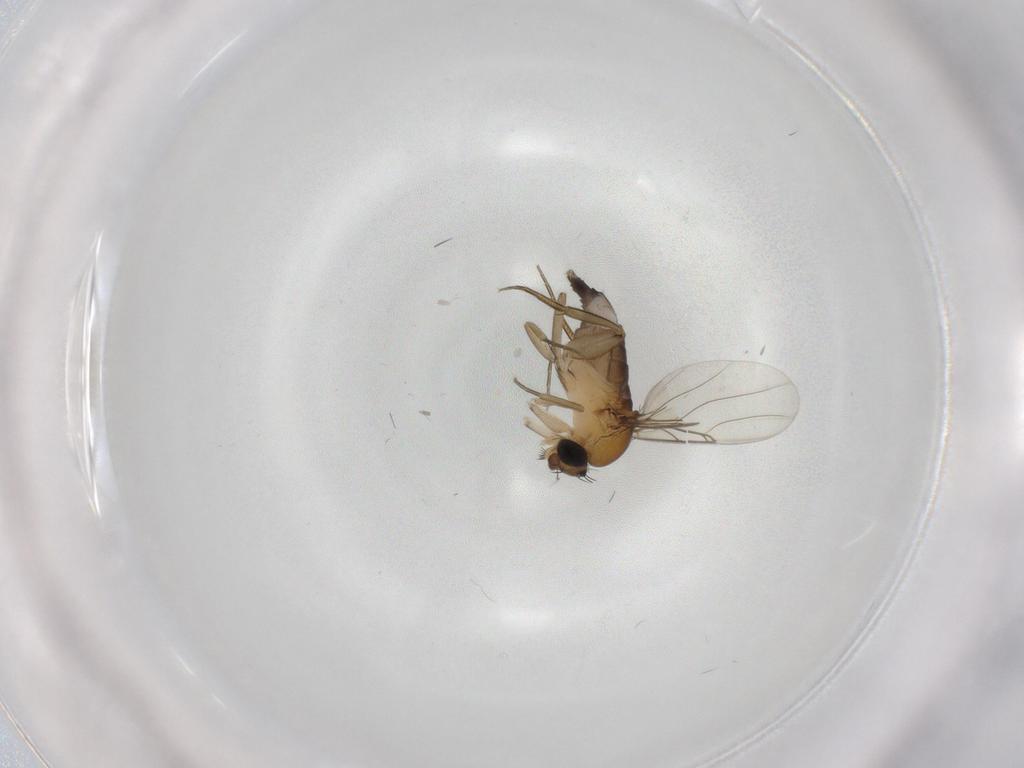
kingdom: Animalia
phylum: Arthropoda
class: Insecta
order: Diptera
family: Phoridae
